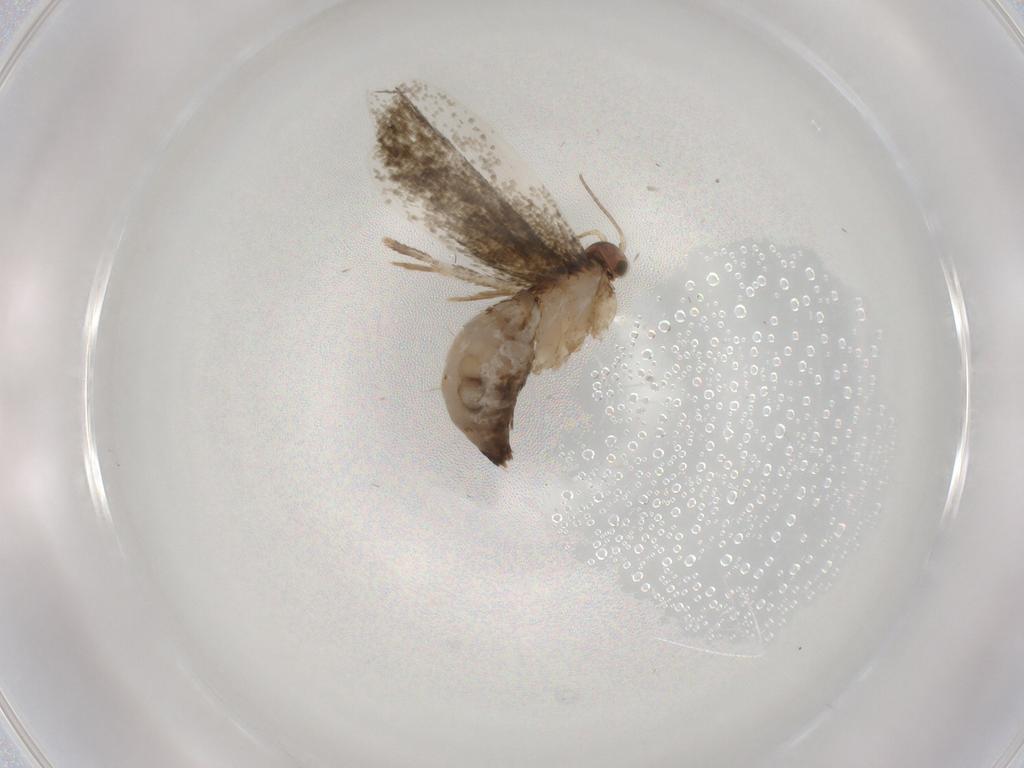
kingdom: Animalia
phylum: Arthropoda
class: Insecta
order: Lepidoptera
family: Tineidae
